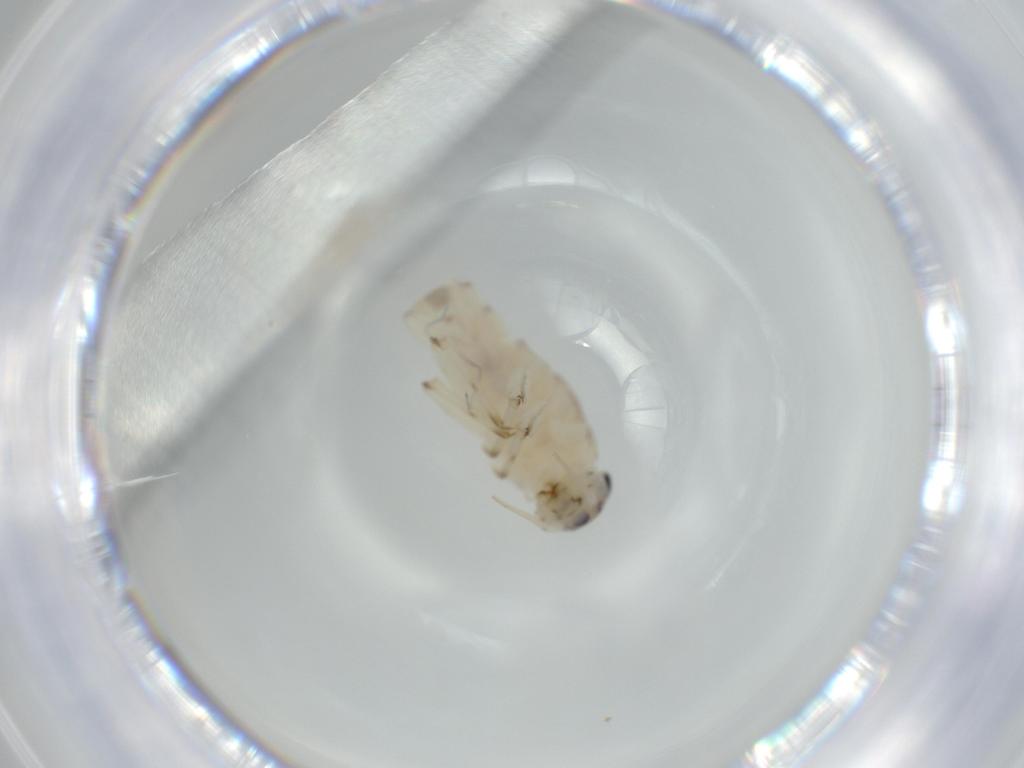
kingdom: Animalia
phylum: Arthropoda
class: Insecta
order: Ephemeroptera
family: Baetidae
